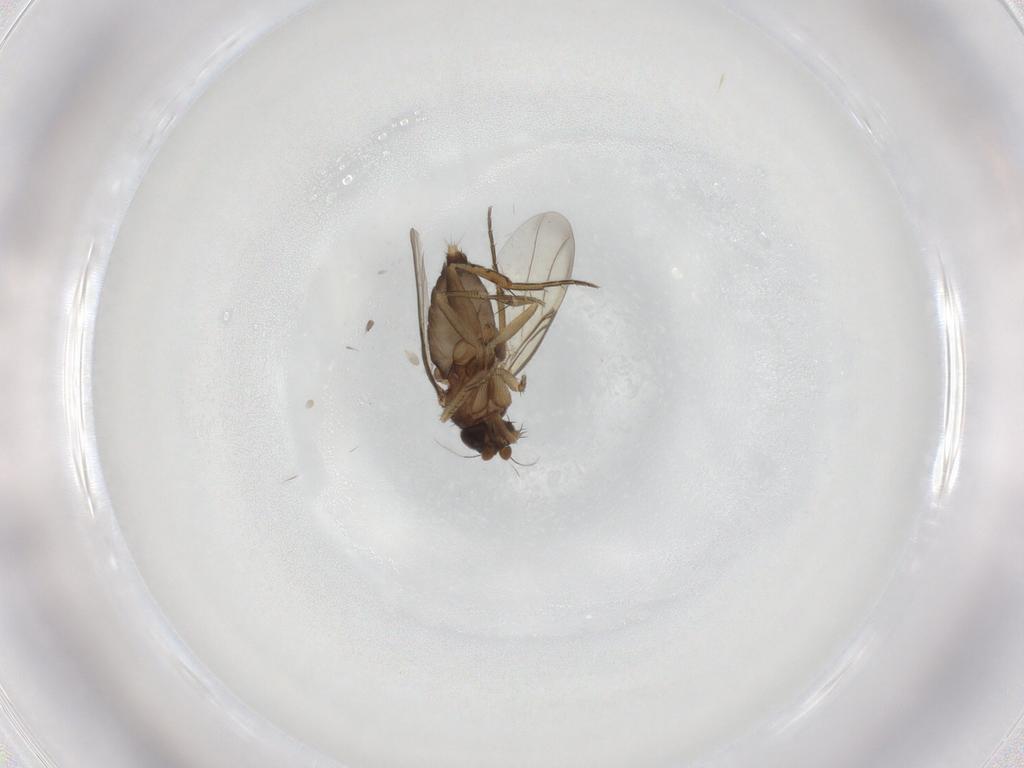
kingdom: Animalia
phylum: Arthropoda
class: Insecta
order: Diptera
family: Phoridae
